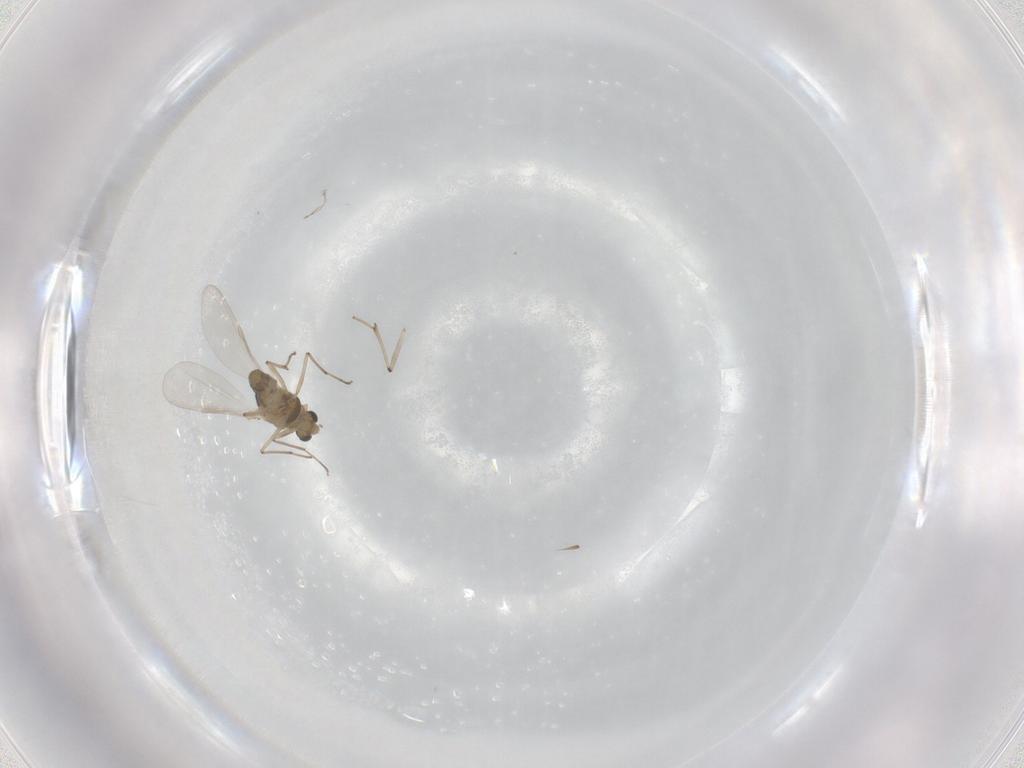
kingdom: Animalia
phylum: Arthropoda
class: Insecta
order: Diptera
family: Chironomidae
